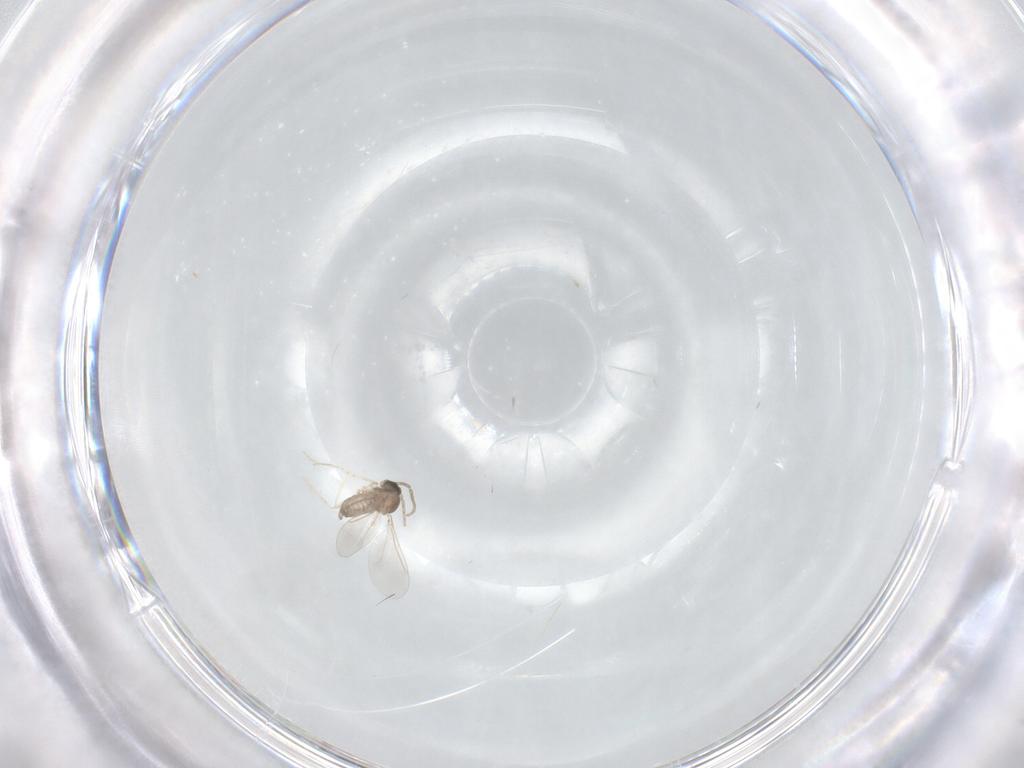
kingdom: Animalia
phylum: Arthropoda
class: Insecta
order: Diptera
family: Cecidomyiidae
